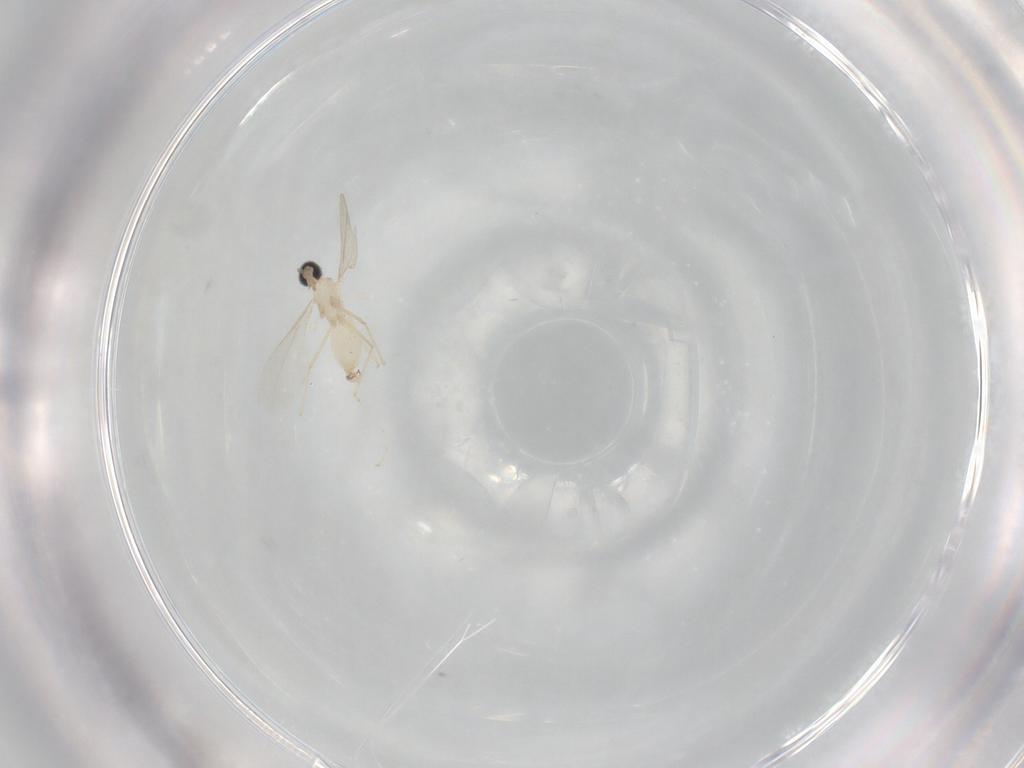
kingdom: Animalia
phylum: Arthropoda
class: Insecta
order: Diptera
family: Cecidomyiidae
